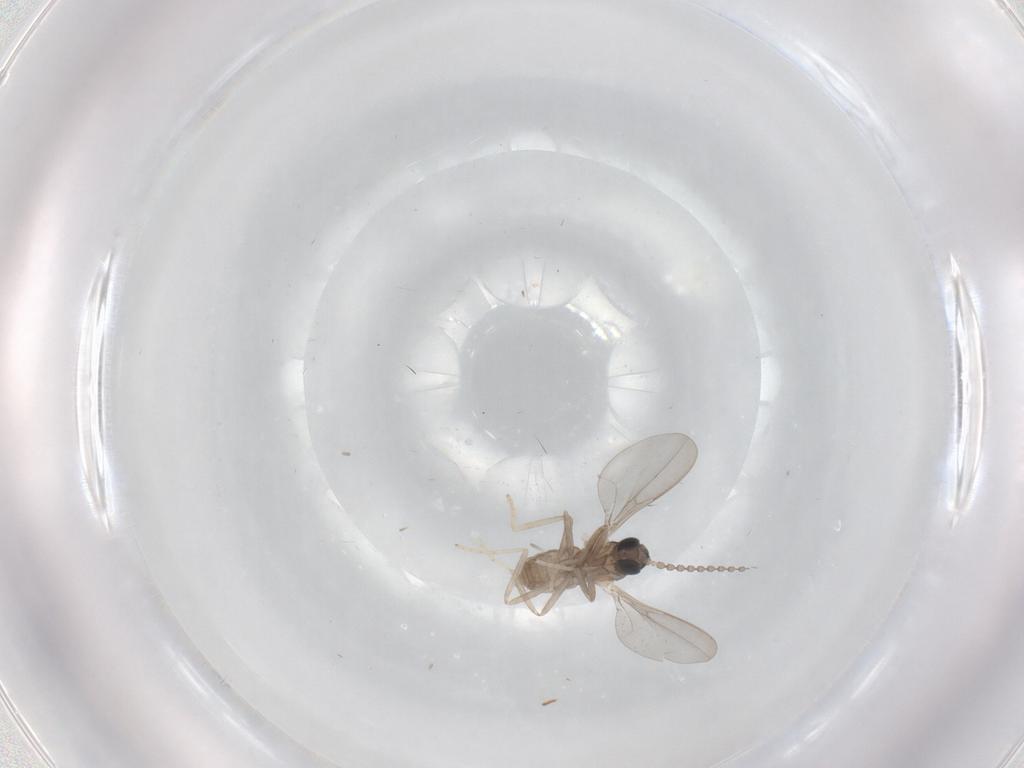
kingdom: Animalia
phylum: Arthropoda
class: Insecta
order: Diptera
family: Cecidomyiidae
